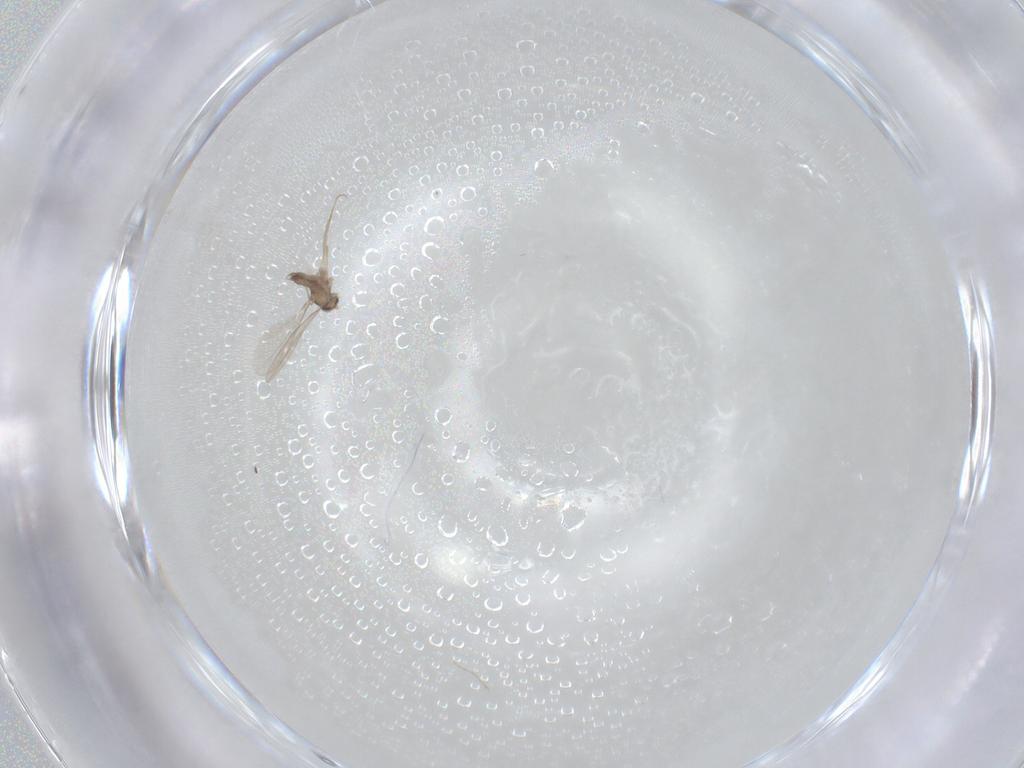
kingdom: Animalia
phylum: Arthropoda
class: Insecta
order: Diptera
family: Cecidomyiidae
